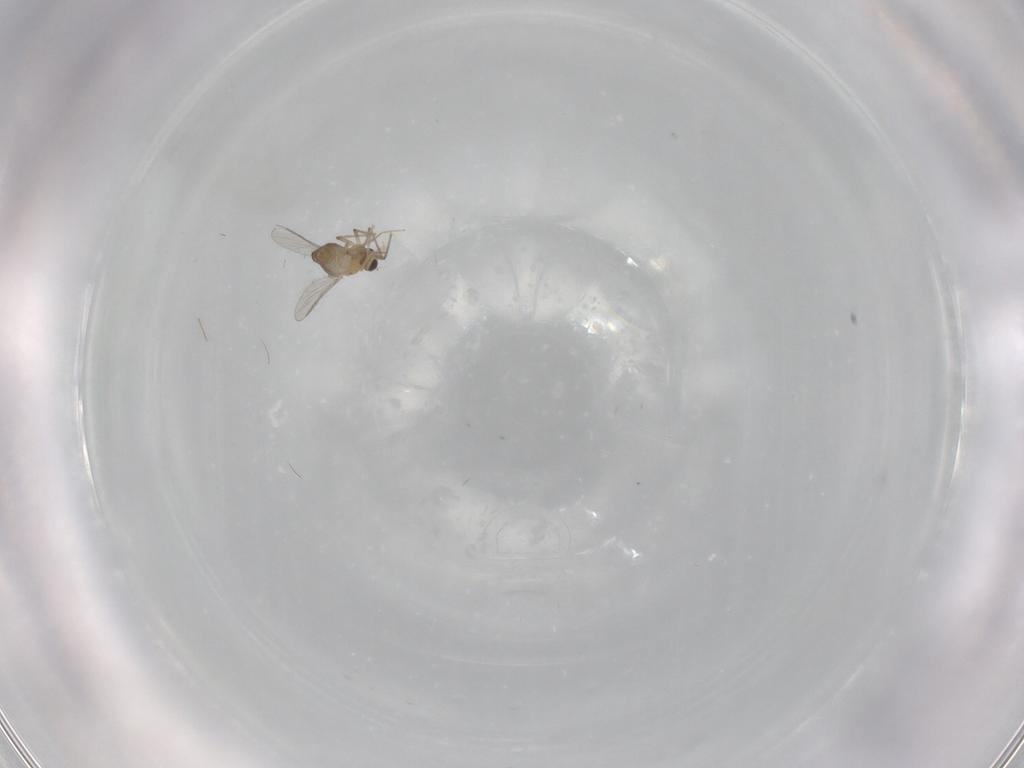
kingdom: Animalia
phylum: Arthropoda
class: Insecta
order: Diptera
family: Chironomidae
